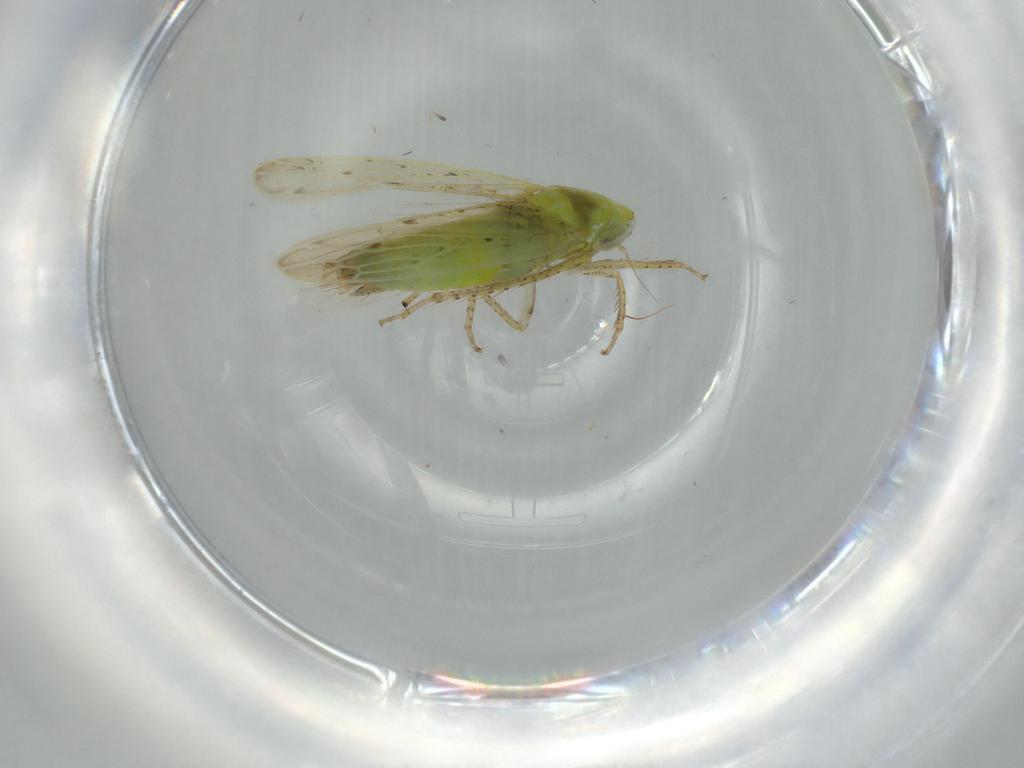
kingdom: Animalia
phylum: Arthropoda
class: Insecta
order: Hemiptera
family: Cicadellidae
